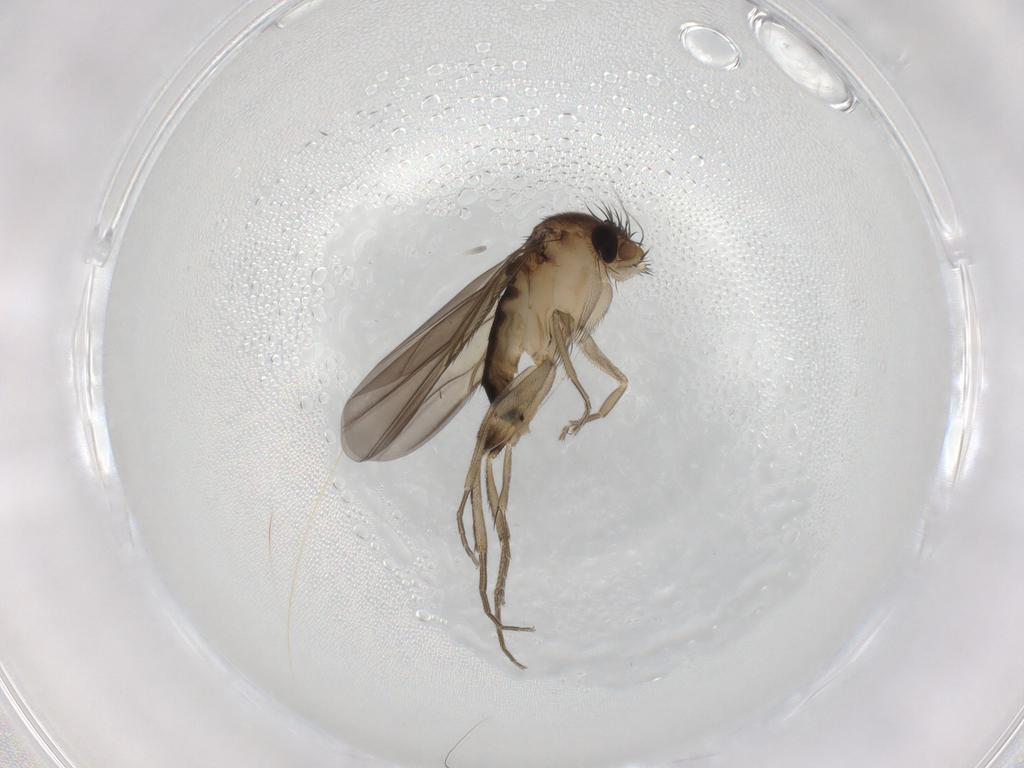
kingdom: Animalia
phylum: Arthropoda
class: Insecta
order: Diptera
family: Phoridae
